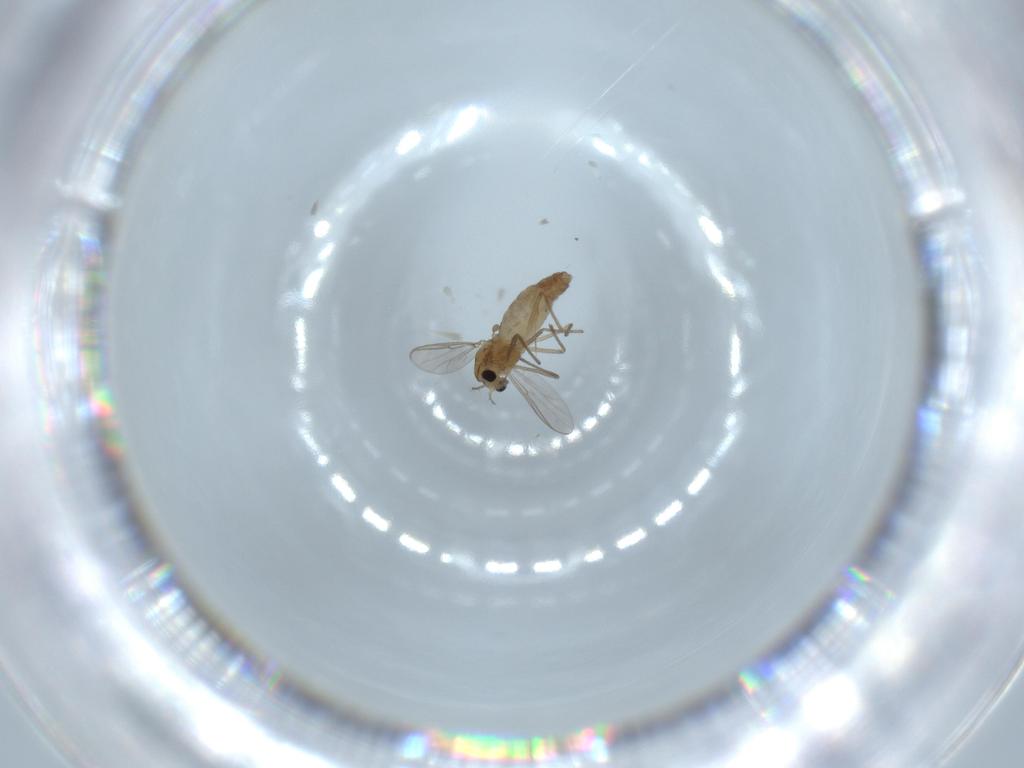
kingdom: Animalia
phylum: Arthropoda
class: Insecta
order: Diptera
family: Chironomidae
